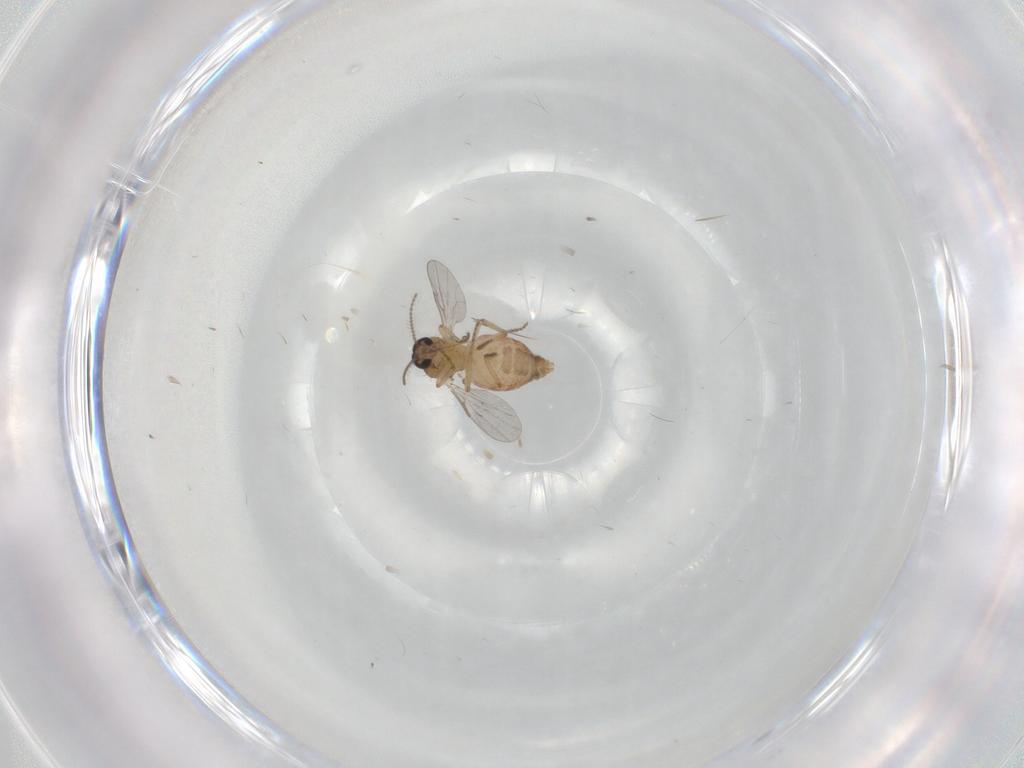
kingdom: Animalia
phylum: Arthropoda
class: Insecta
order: Diptera
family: Ceratopogonidae
